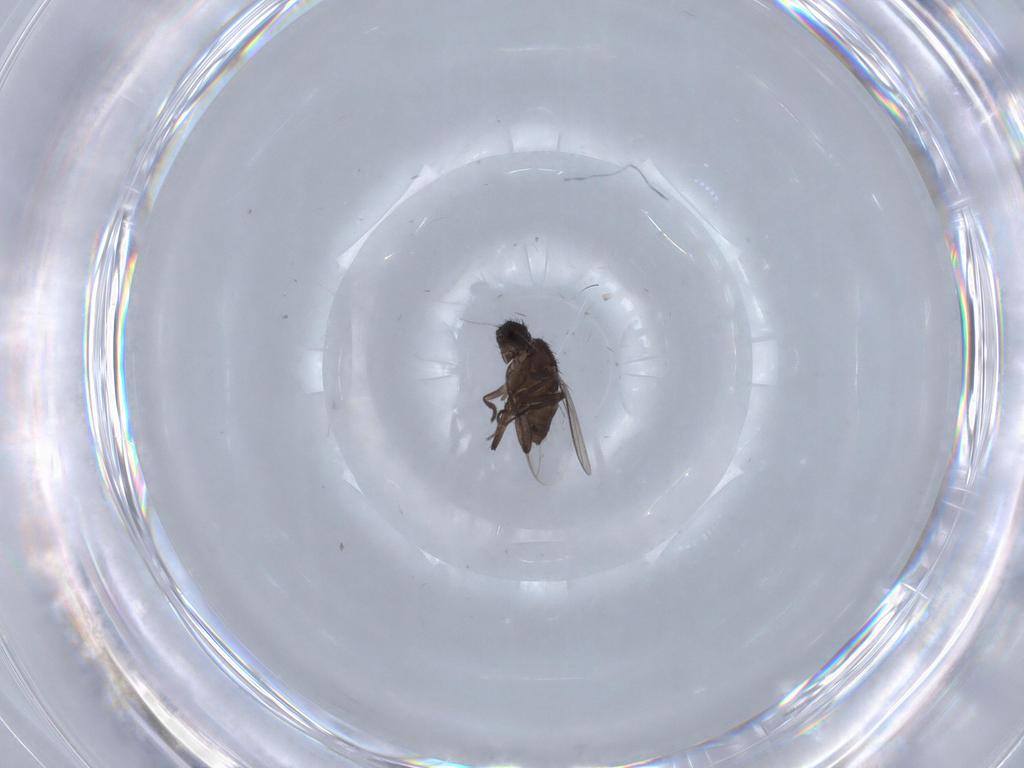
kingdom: Animalia
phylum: Arthropoda
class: Insecta
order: Diptera
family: Sphaeroceridae
